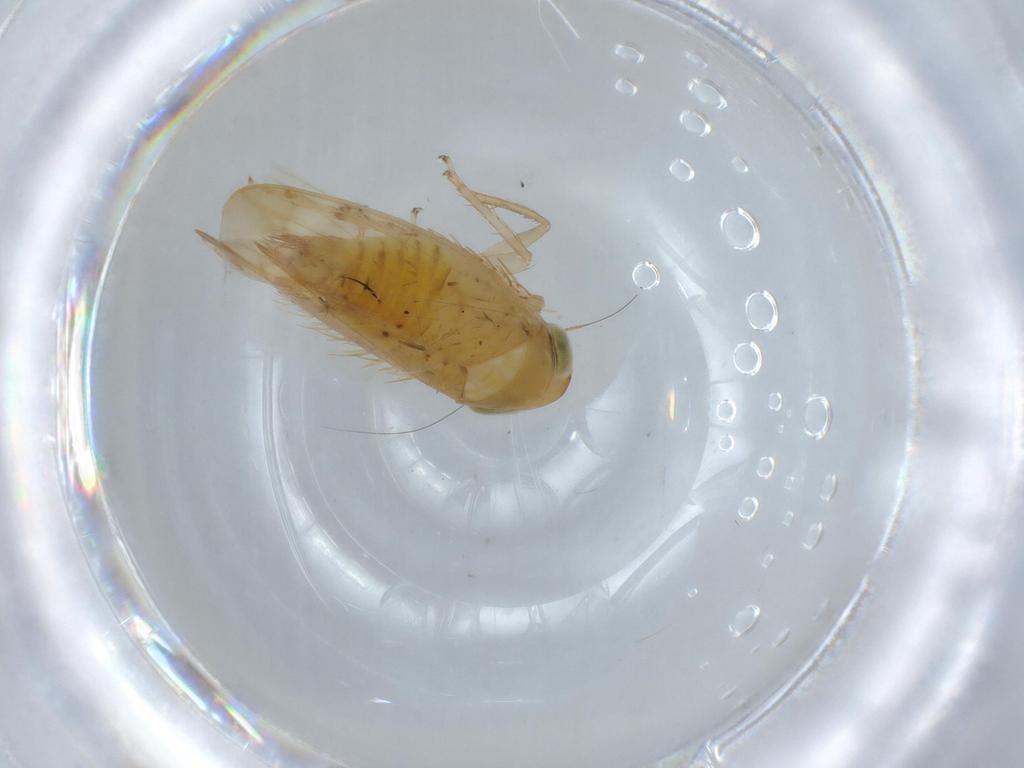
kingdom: Animalia
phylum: Arthropoda
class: Insecta
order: Hemiptera
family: Cicadellidae
